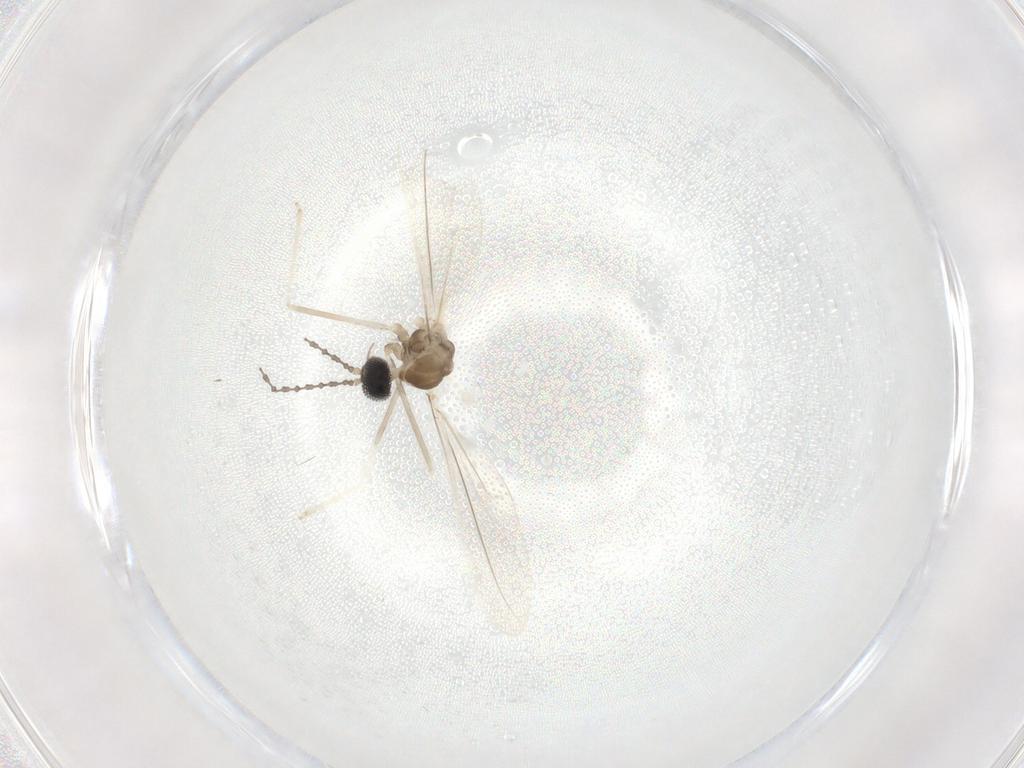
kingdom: Animalia
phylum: Arthropoda
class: Insecta
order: Diptera
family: Cecidomyiidae
